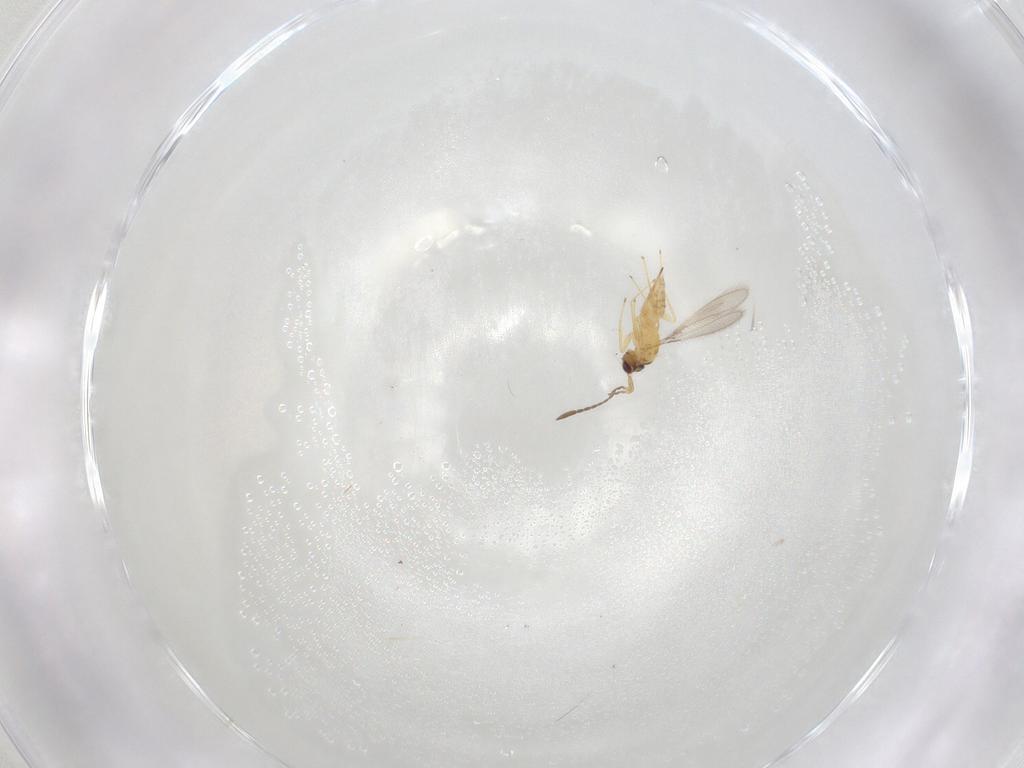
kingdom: Animalia
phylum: Arthropoda
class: Insecta
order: Hymenoptera
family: Mymaridae
